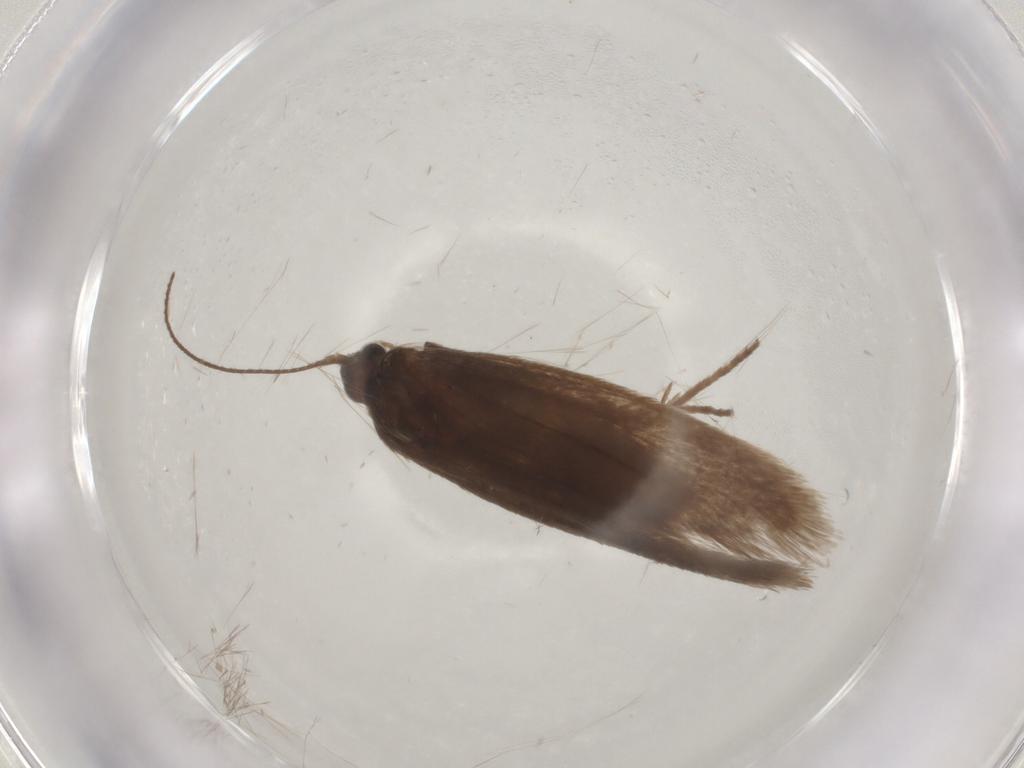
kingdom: Animalia
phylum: Arthropoda
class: Insecta
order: Lepidoptera
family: Limacodidae
